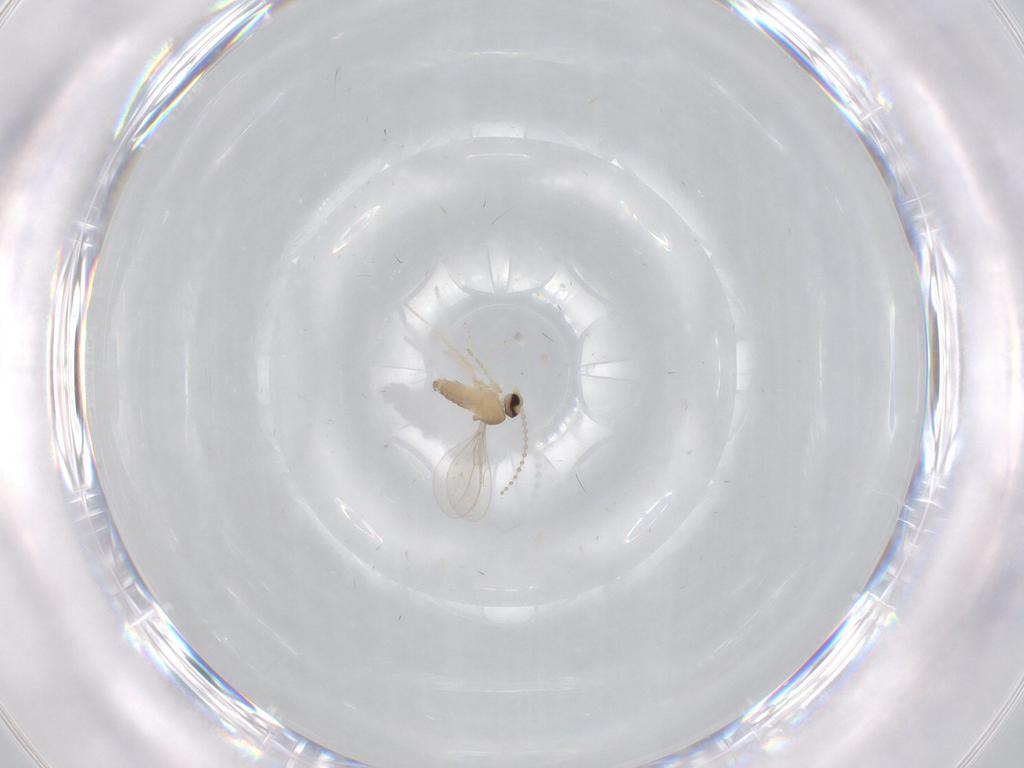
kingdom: Animalia
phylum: Arthropoda
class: Insecta
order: Diptera
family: Cecidomyiidae
